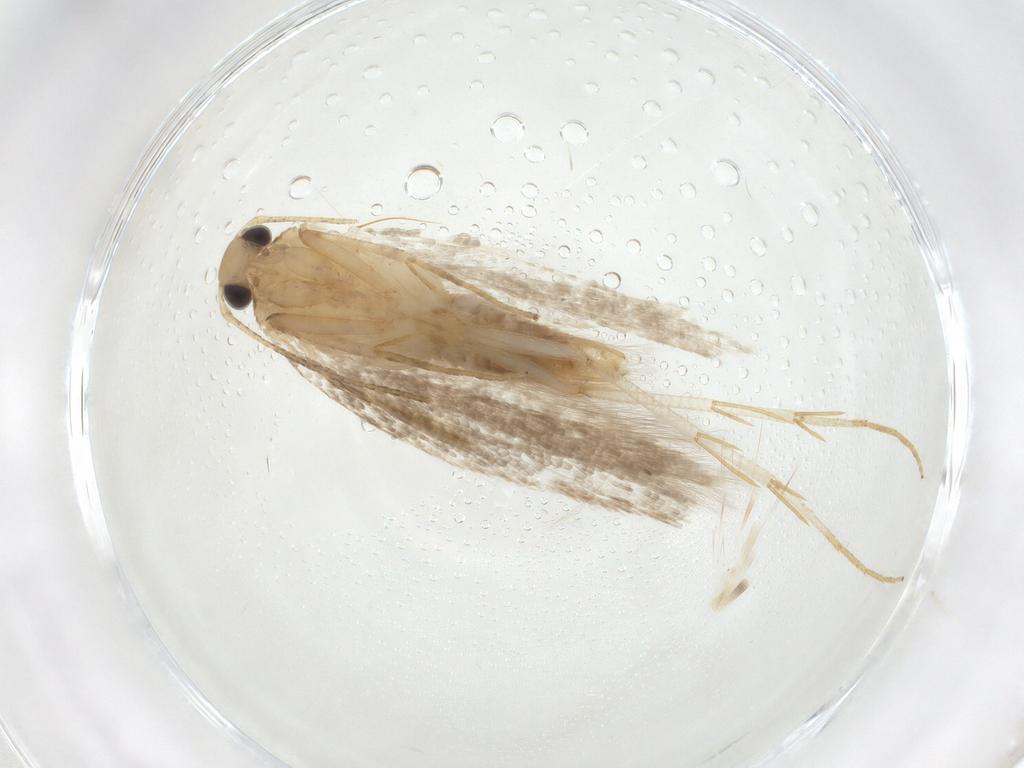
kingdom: Animalia
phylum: Arthropoda
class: Insecta
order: Lepidoptera
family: Gelechiidae
